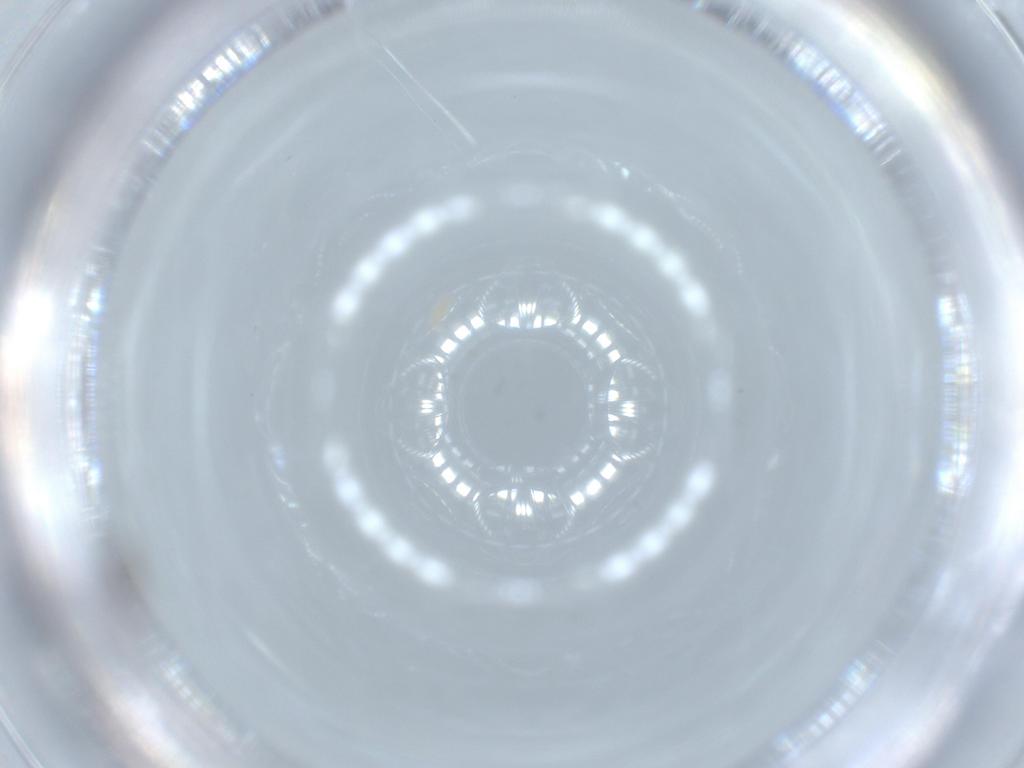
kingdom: Animalia
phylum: Arthropoda
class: Insecta
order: Diptera
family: Cecidomyiidae
